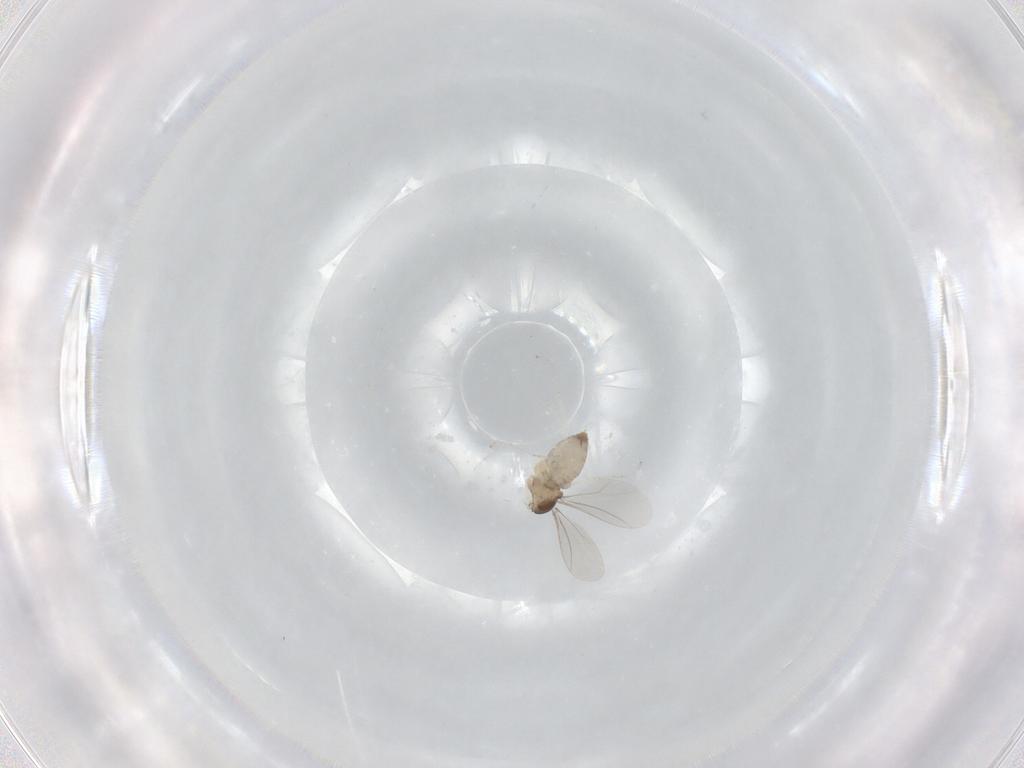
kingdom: Animalia
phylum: Arthropoda
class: Insecta
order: Diptera
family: Cecidomyiidae
